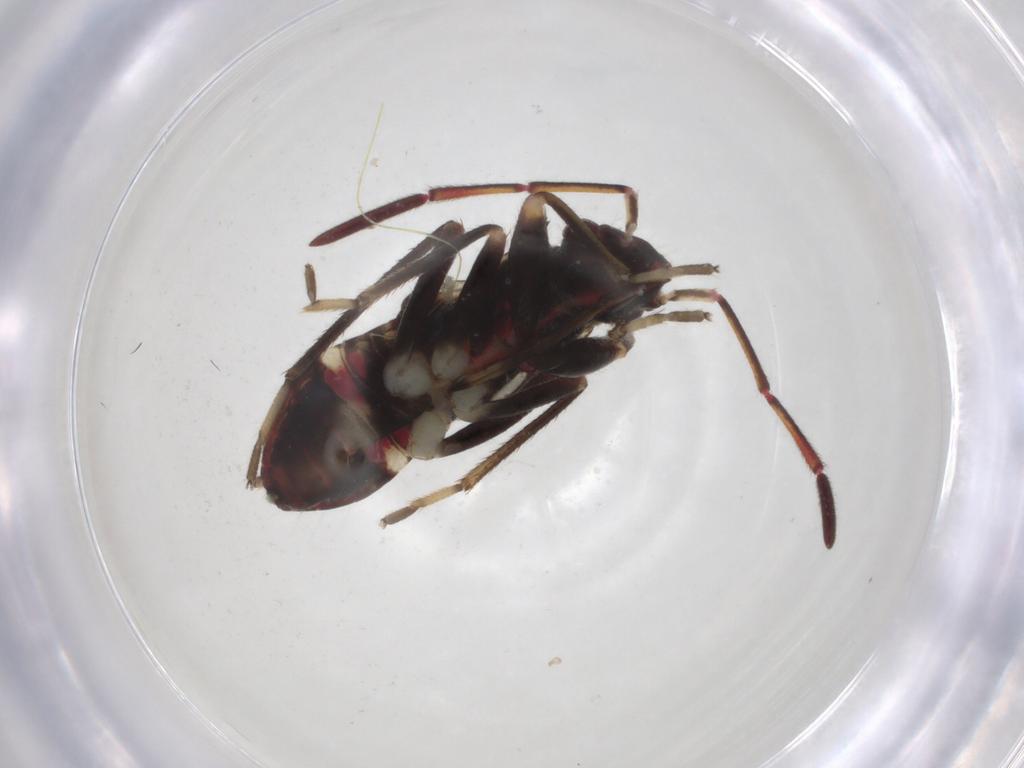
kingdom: Animalia
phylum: Arthropoda
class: Insecta
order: Hemiptera
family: Rhyparochromidae
